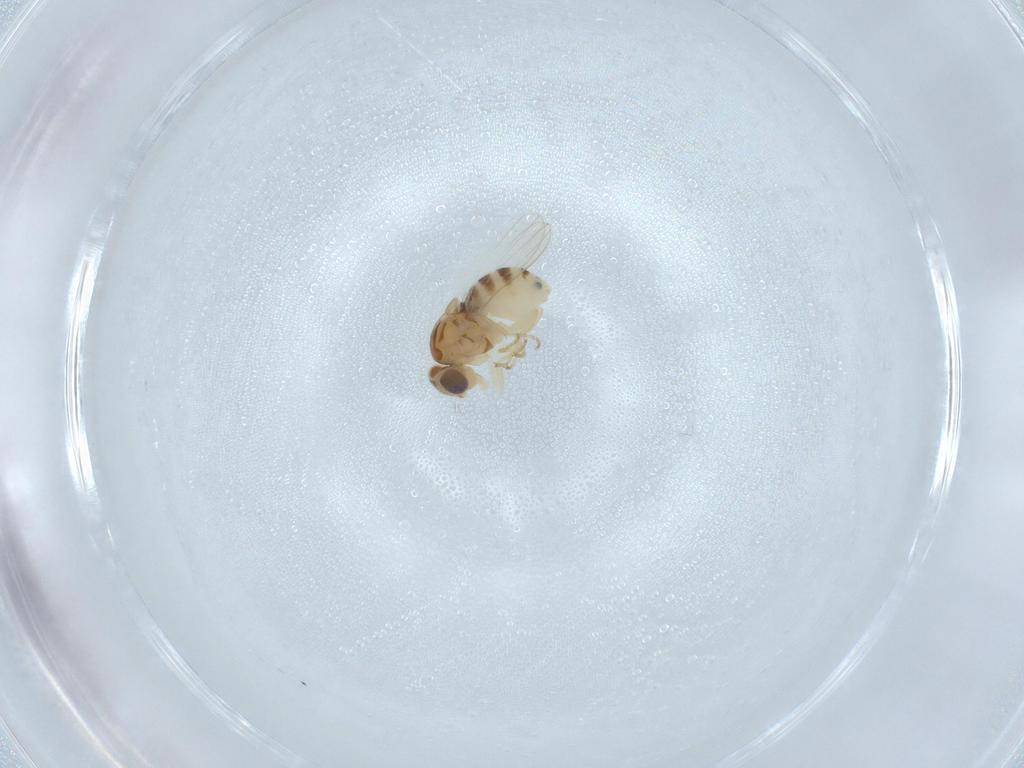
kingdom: Animalia
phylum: Arthropoda
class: Insecta
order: Diptera
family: Chyromyidae
